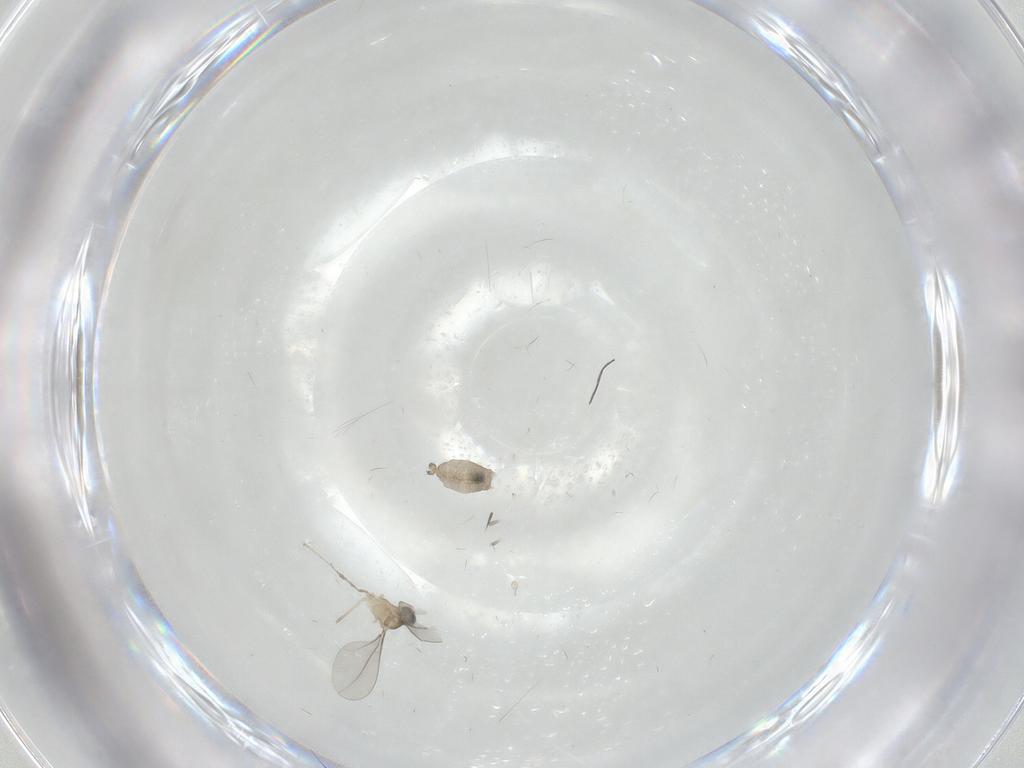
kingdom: Animalia
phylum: Arthropoda
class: Insecta
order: Diptera
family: Cecidomyiidae
